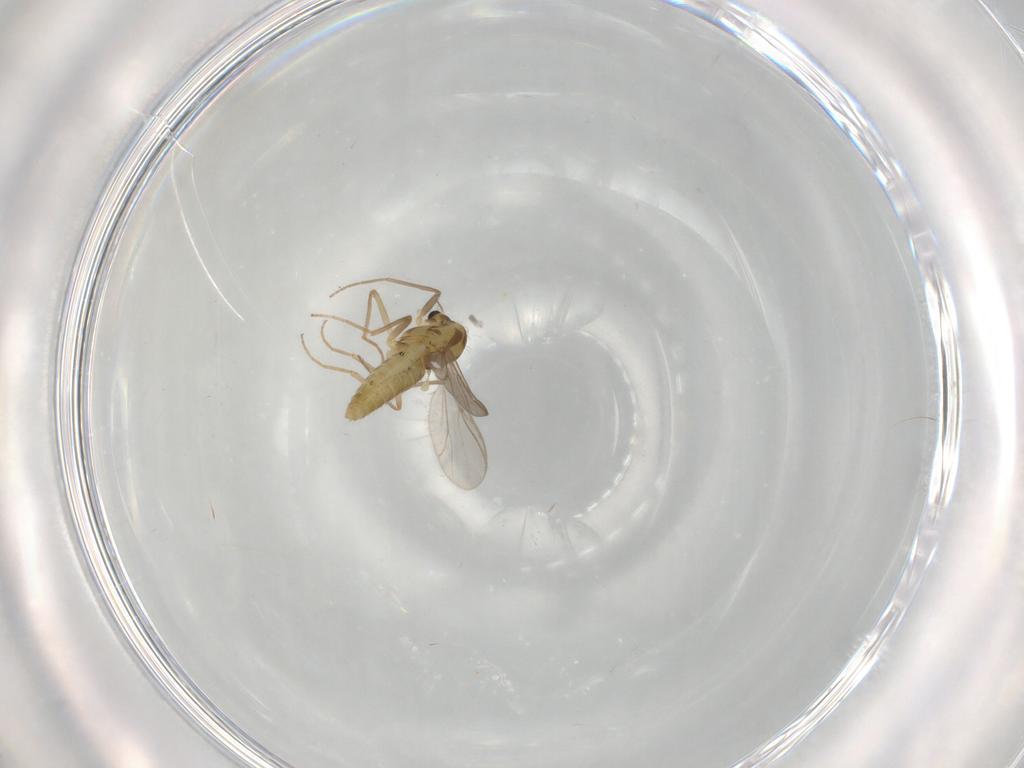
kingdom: Animalia
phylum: Arthropoda
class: Insecta
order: Diptera
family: Chironomidae
